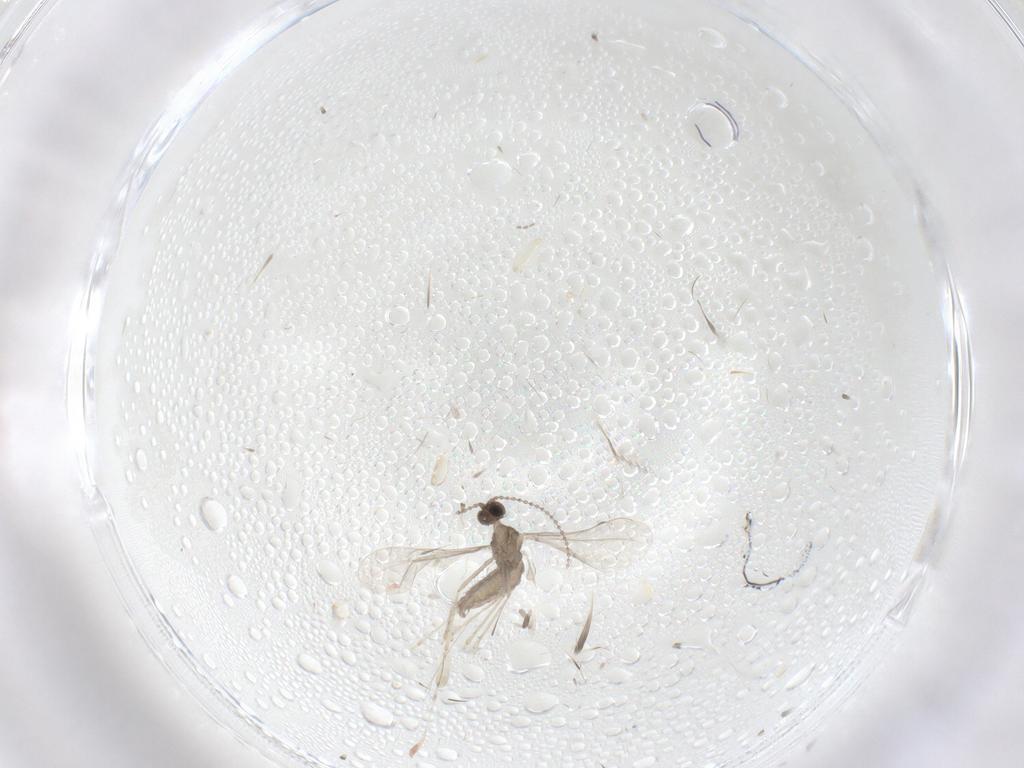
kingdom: Animalia
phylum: Arthropoda
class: Insecta
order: Diptera
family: Cecidomyiidae
